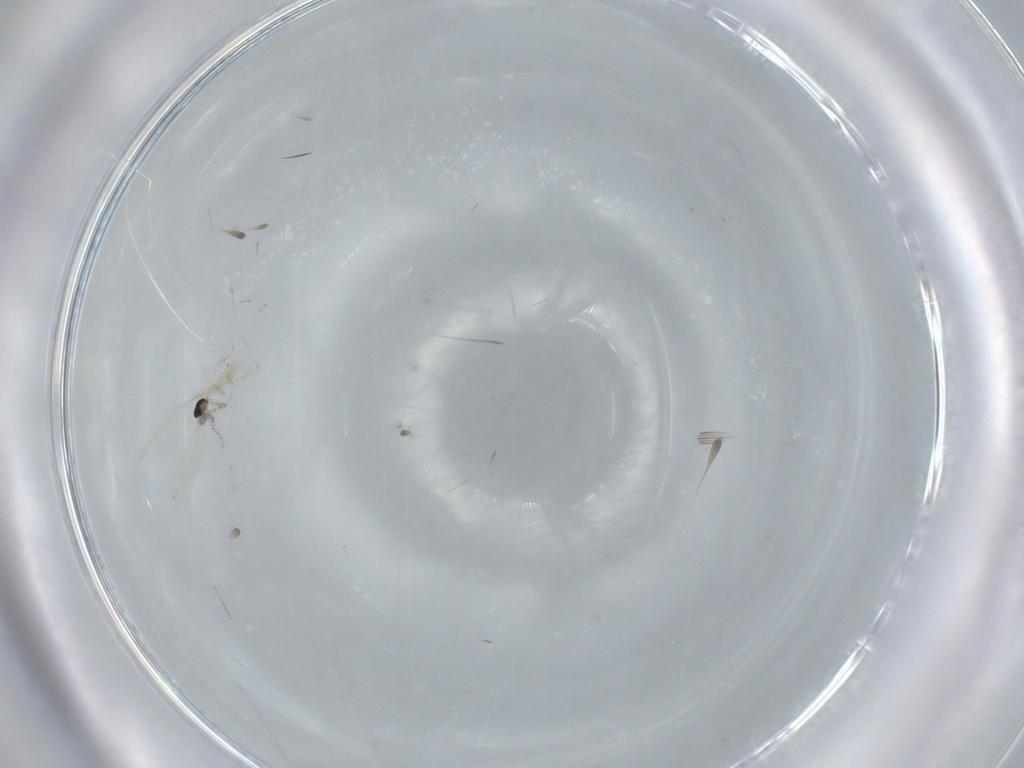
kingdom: Animalia
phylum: Arthropoda
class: Insecta
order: Diptera
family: Cecidomyiidae
